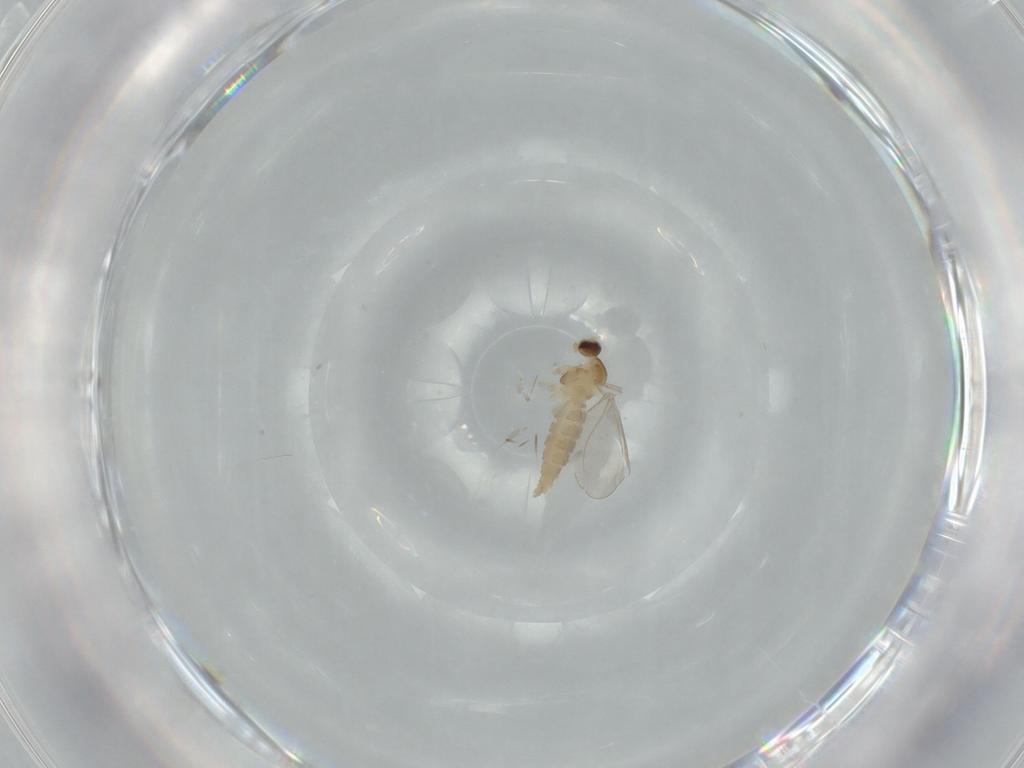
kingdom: Animalia
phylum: Arthropoda
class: Insecta
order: Diptera
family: Cecidomyiidae
